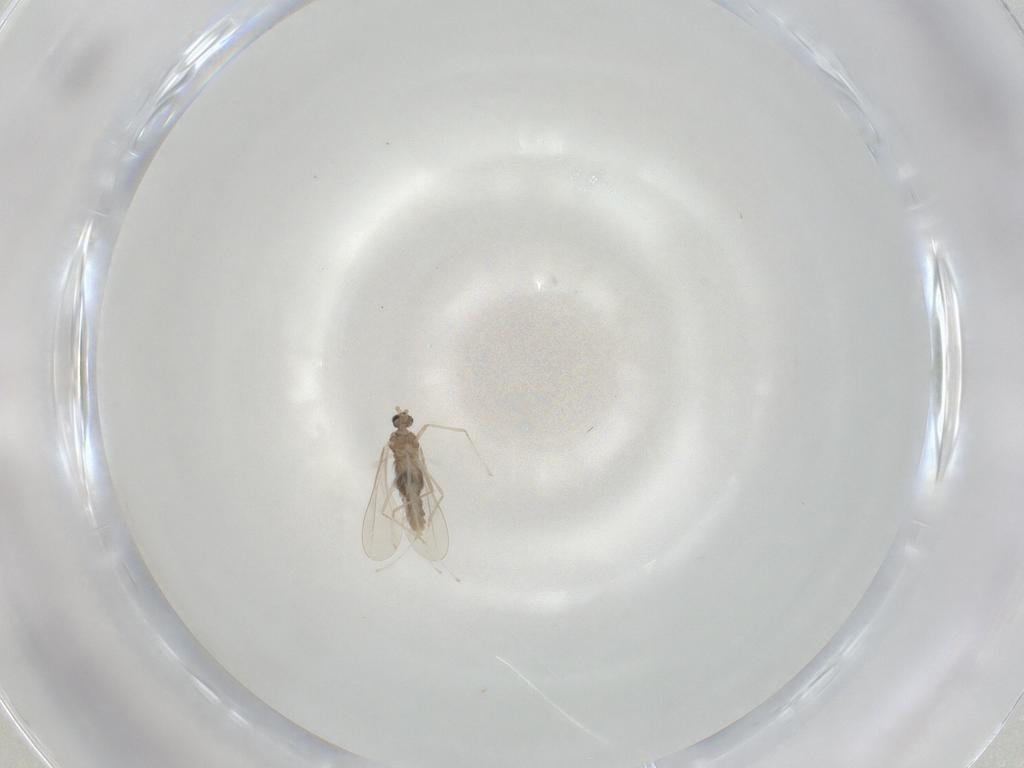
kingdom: Animalia
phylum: Arthropoda
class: Insecta
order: Diptera
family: Cecidomyiidae
